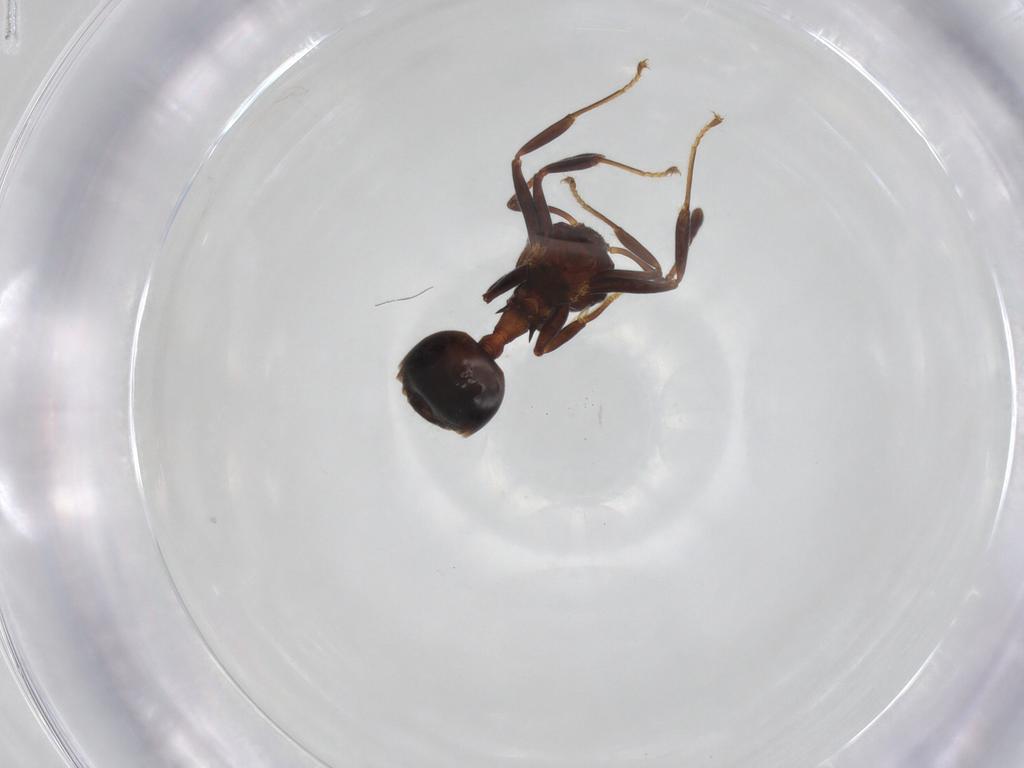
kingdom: Animalia
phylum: Arthropoda
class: Insecta
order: Hymenoptera
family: Formicidae
